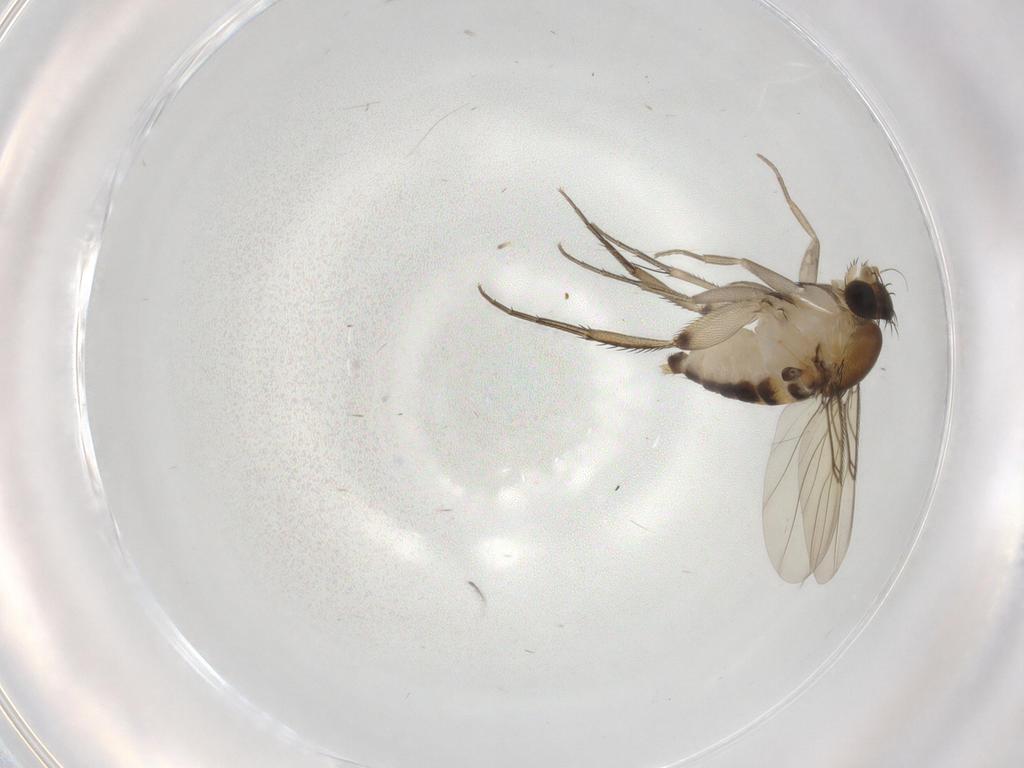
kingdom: Animalia
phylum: Arthropoda
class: Insecta
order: Diptera
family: Phoridae
